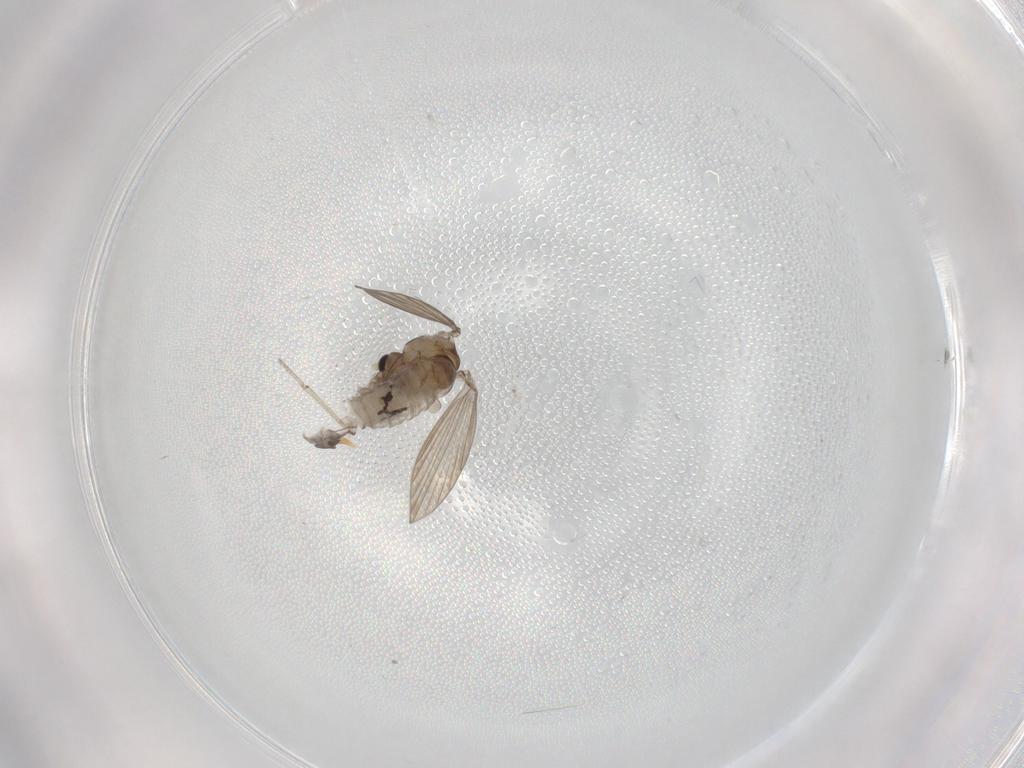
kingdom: Animalia
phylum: Arthropoda
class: Insecta
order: Diptera
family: Psychodidae
